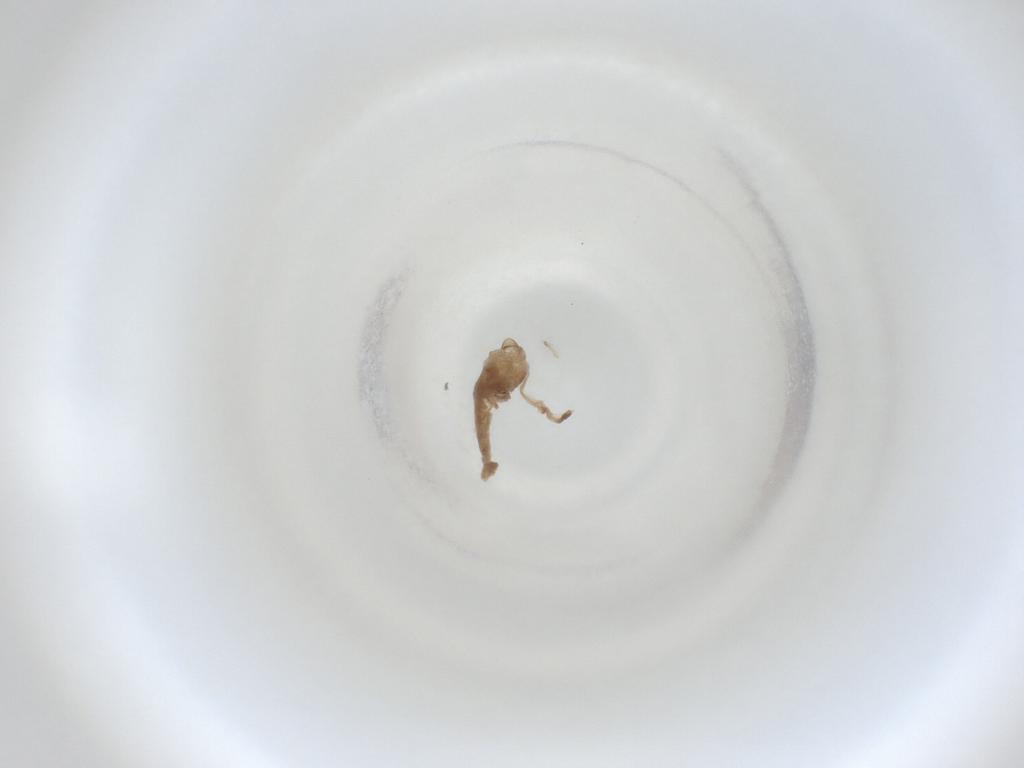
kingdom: Animalia
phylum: Arthropoda
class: Insecta
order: Diptera
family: Cecidomyiidae
